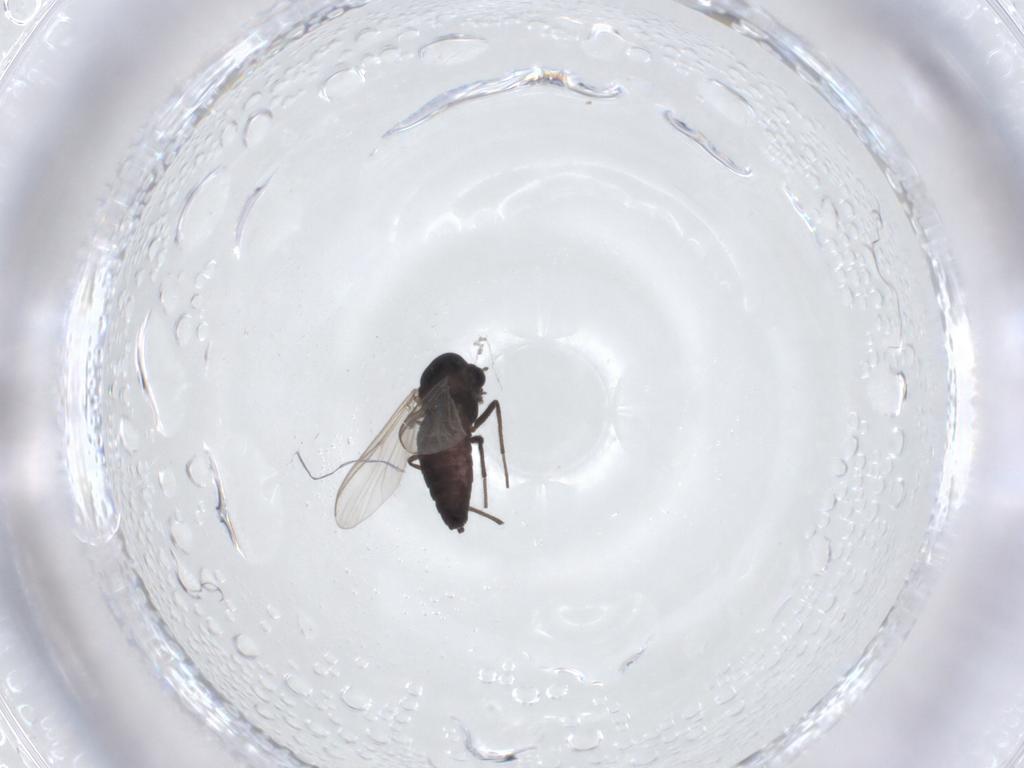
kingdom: Animalia
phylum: Arthropoda
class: Insecta
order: Diptera
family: Chironomidae
